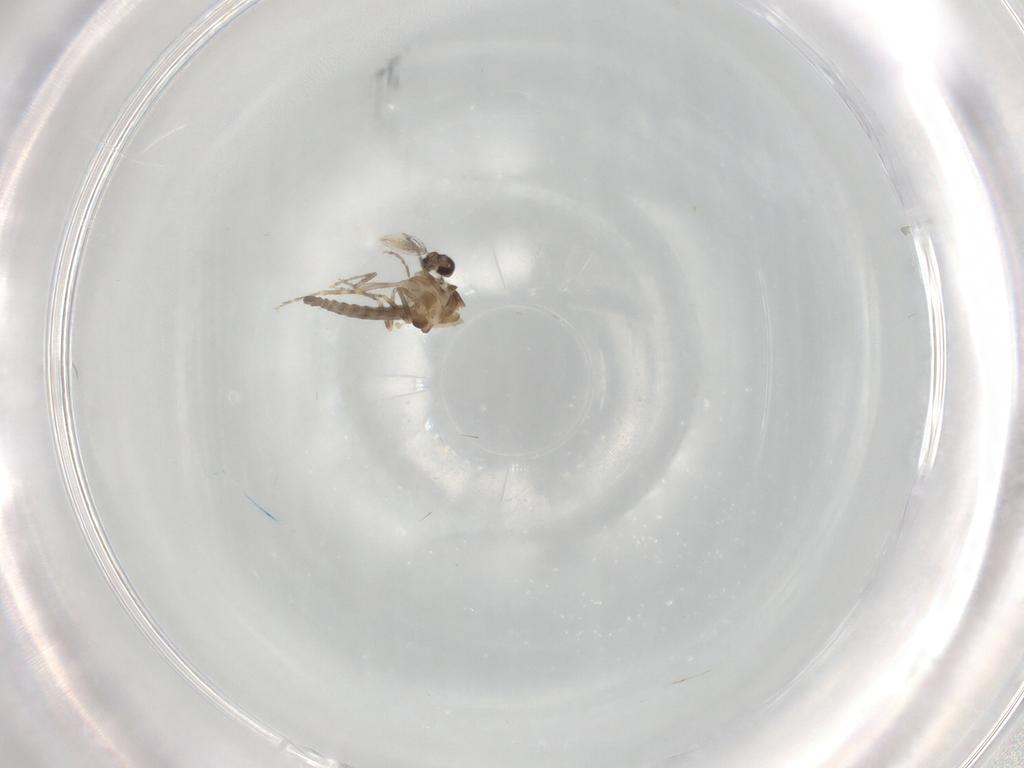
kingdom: Animalia
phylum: Arthropoda
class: Insecta
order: Diptera
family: Ceratopogonidae
